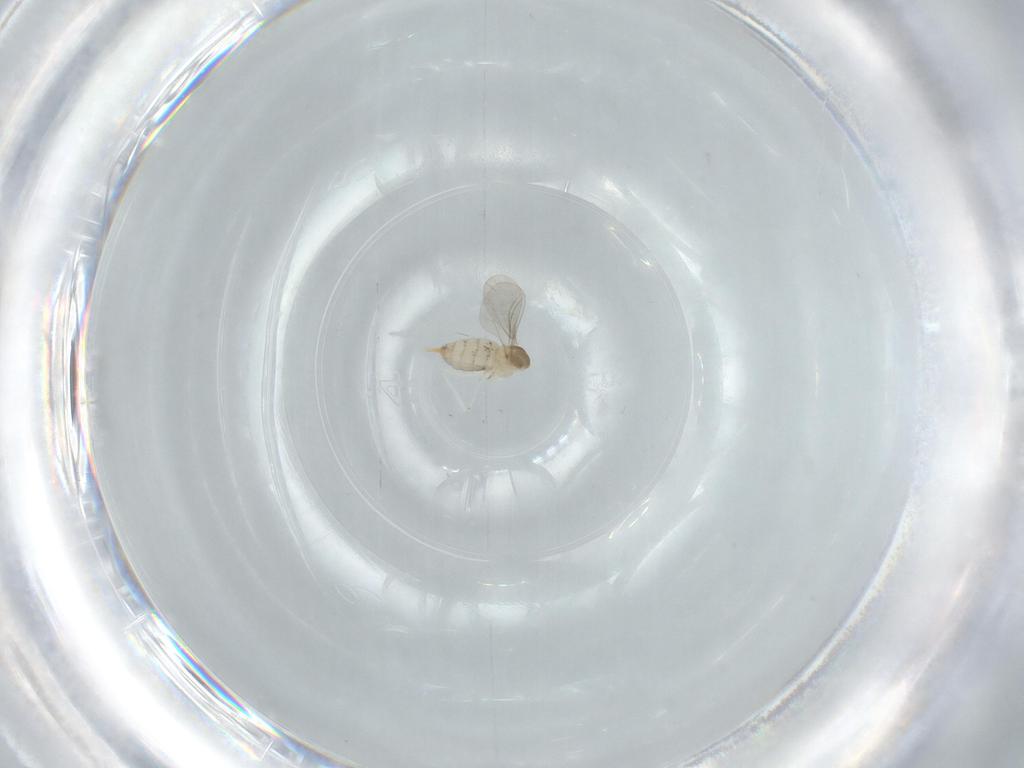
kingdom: Animalia
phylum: Arthropoda
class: Insecta
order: Diptera
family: Cecidomyiidae
